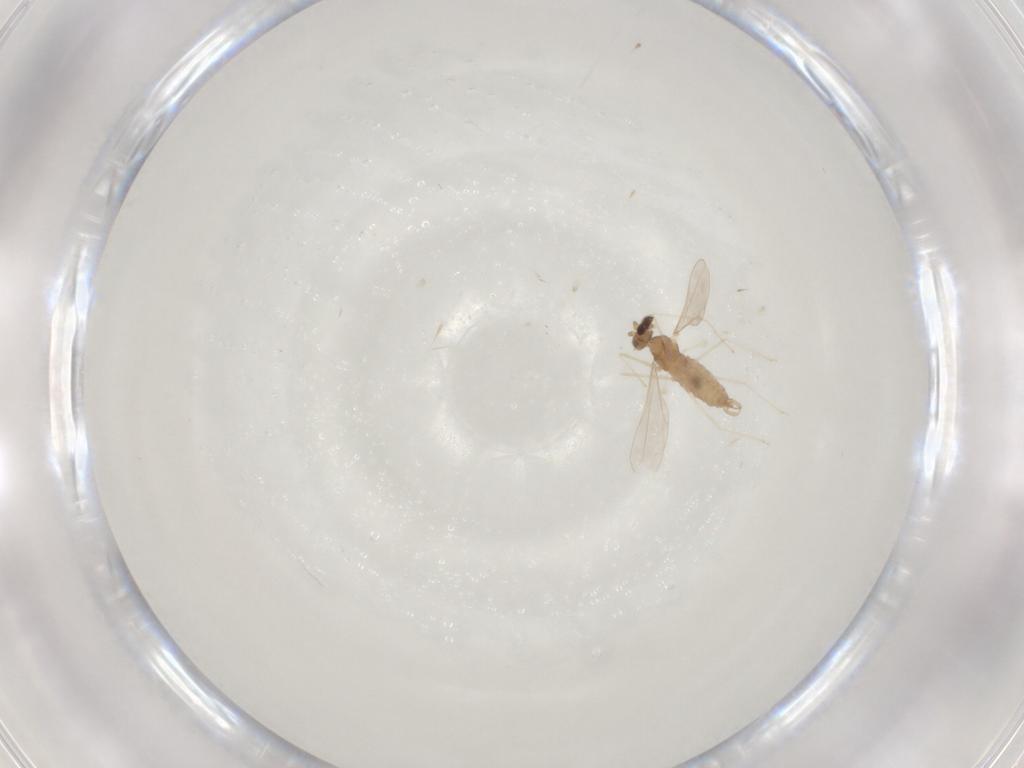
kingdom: Animalia
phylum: Arthropoda
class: Insecta
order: Diptera
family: Cecidomyiidae
